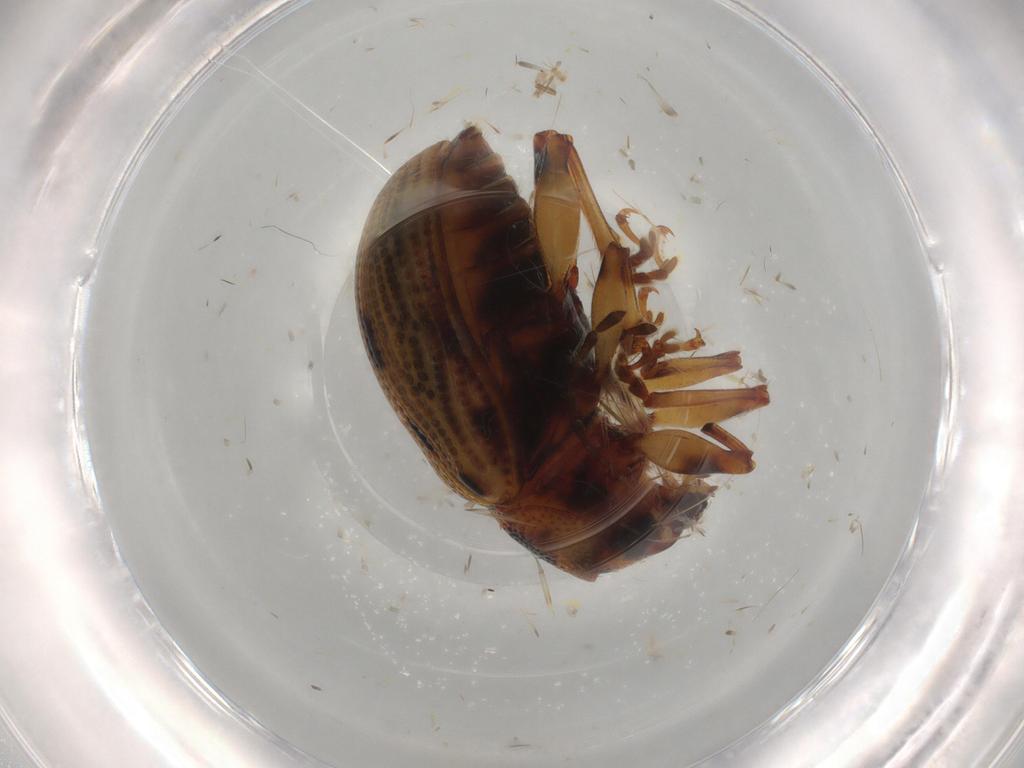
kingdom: Animalia
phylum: Arthropoda
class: Insecta
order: Coleoptera
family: Chrysomelidae
